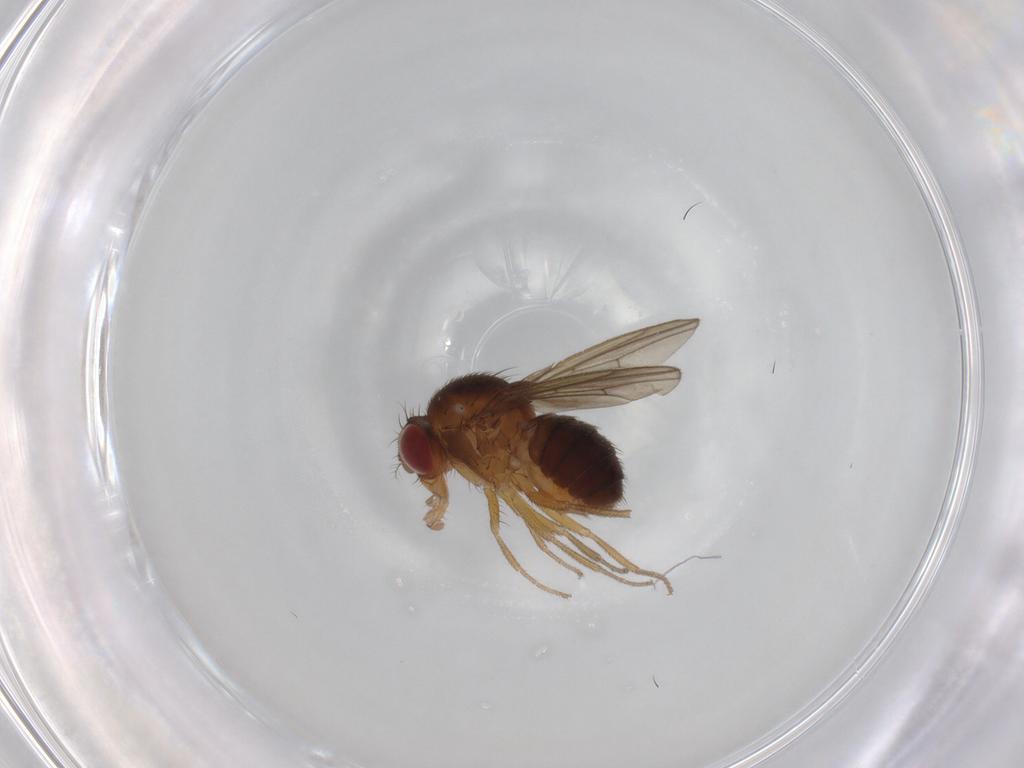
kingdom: Animalia
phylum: Arthropoda
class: Insecta
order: Diptera
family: Drosophilidae
